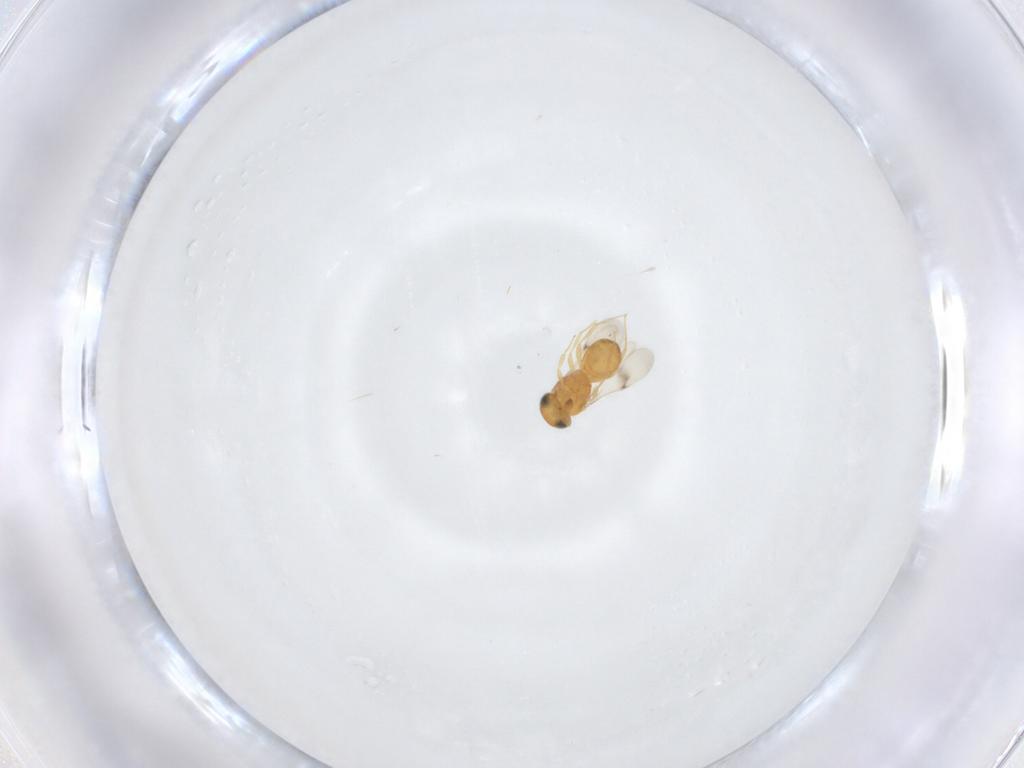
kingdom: Animalia
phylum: Arthropoda
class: Insecta
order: Hymenoptera
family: Scelionidae
